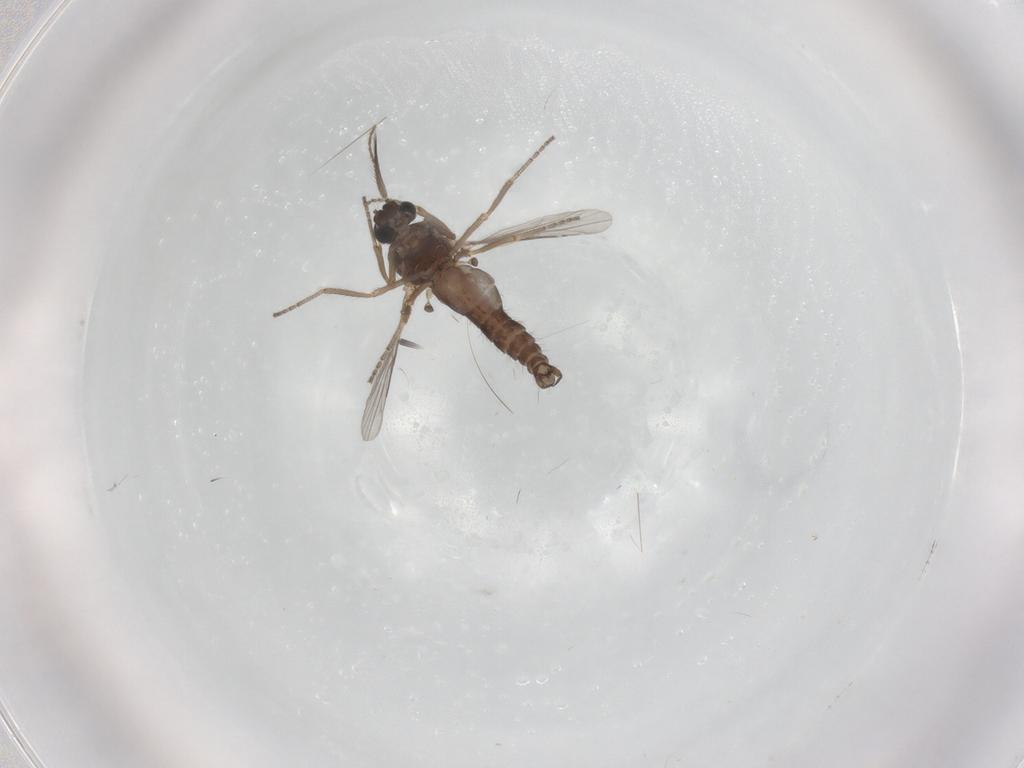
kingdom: Animalia
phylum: Arthropoda
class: Insecta
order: Diptera
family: Ceratopogonidae
